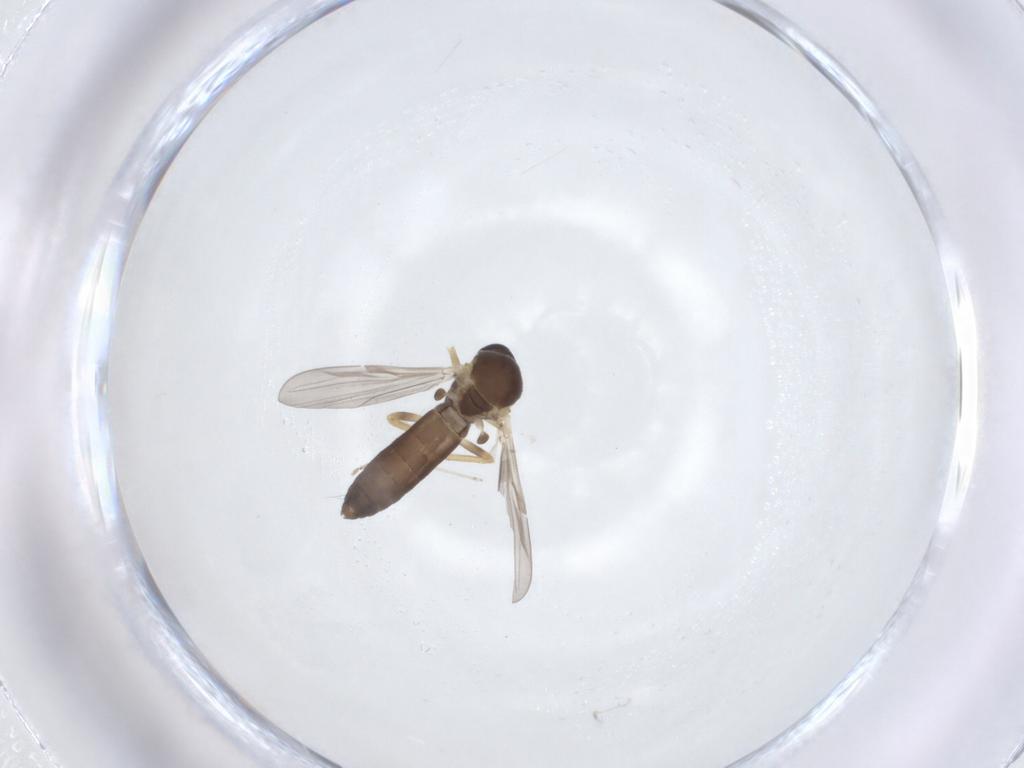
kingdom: Animalia
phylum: Arthropoda
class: Insecta
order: Diptera
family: Ceratopogonidae
